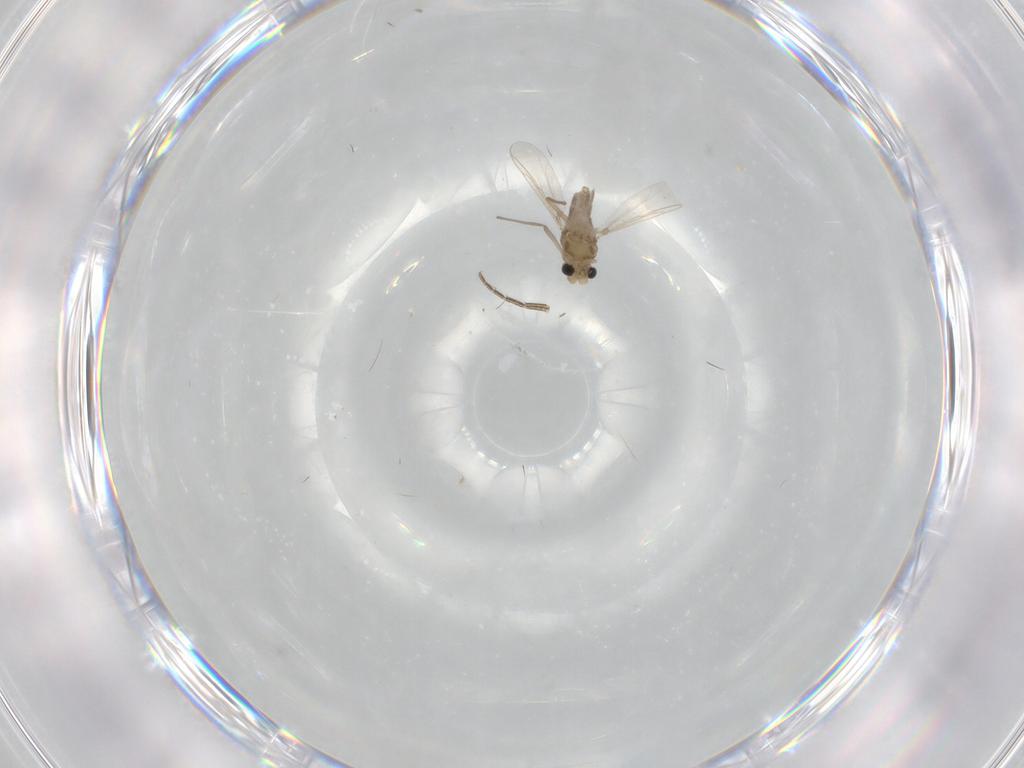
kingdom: Animalia
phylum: Arthropoda
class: Insecta
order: Diptera
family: Chironomidae
